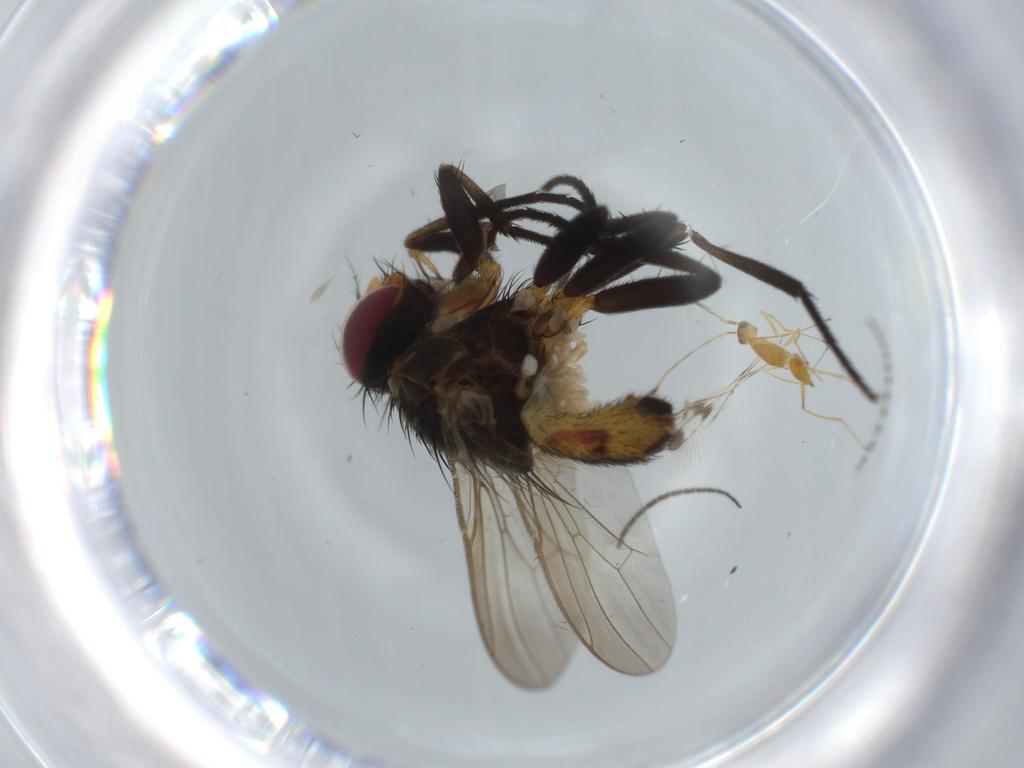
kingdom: Animalia
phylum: Arthropoda
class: Insecta
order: Diptera
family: Anthomyiidae
